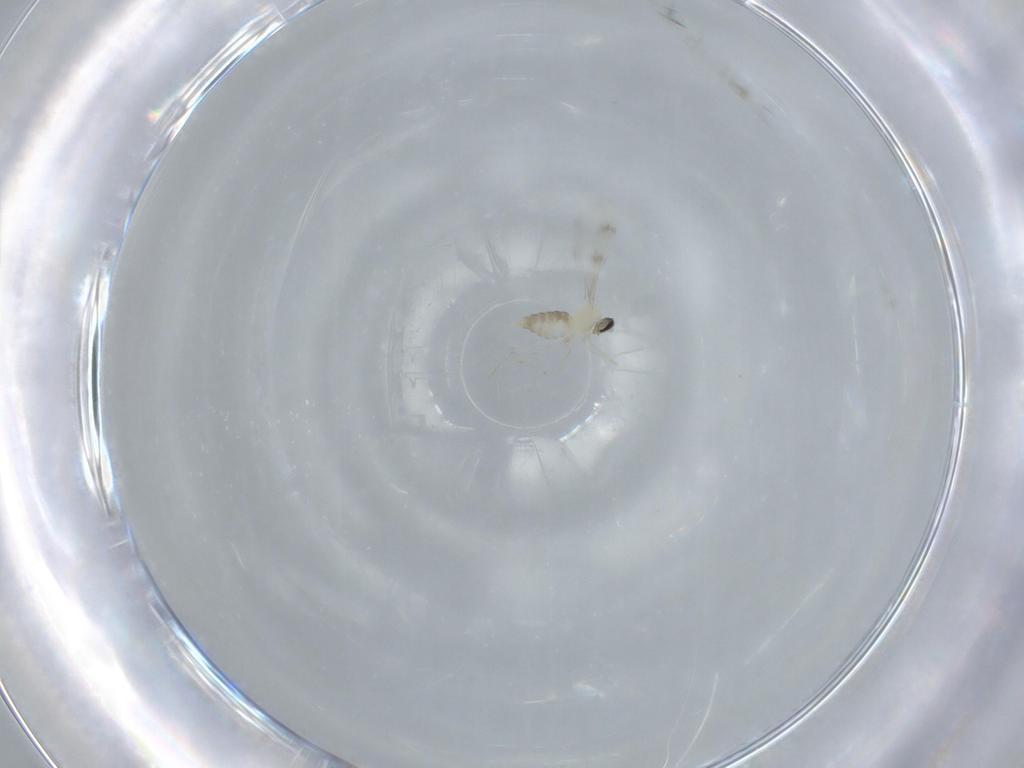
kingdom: Animalia
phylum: Arthropoda
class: Insecta
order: Diptera
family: Cecidomyiidae
